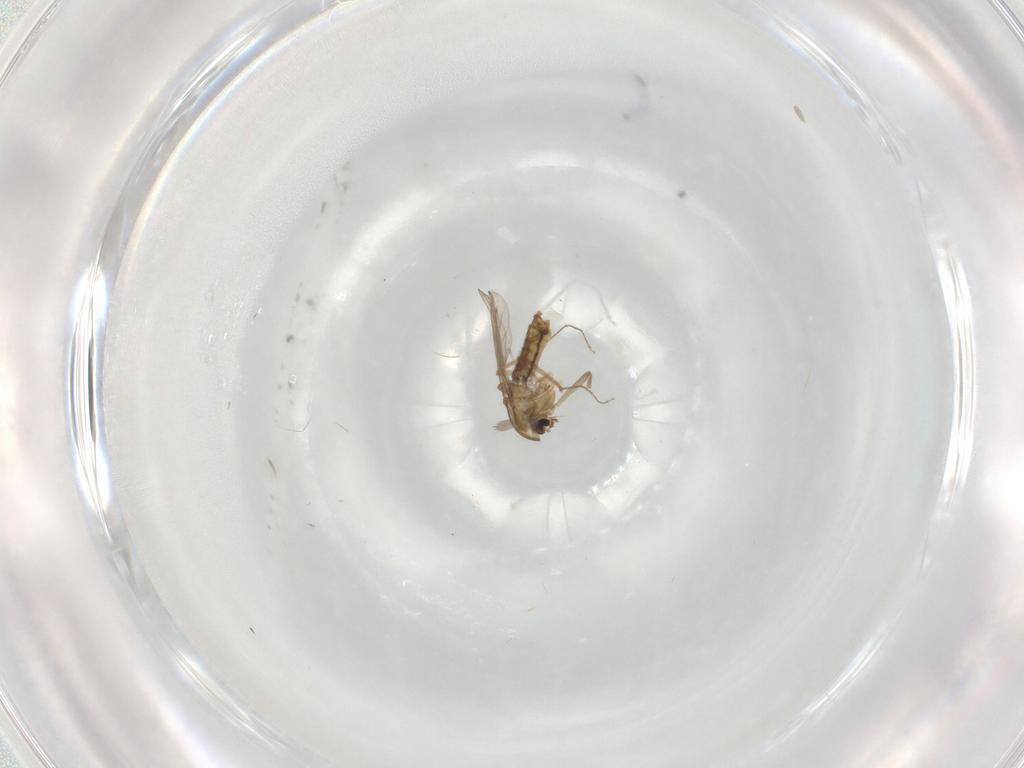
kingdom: Animalia
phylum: Arthropoda
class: Insecta
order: Diptera
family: Chironomidae
